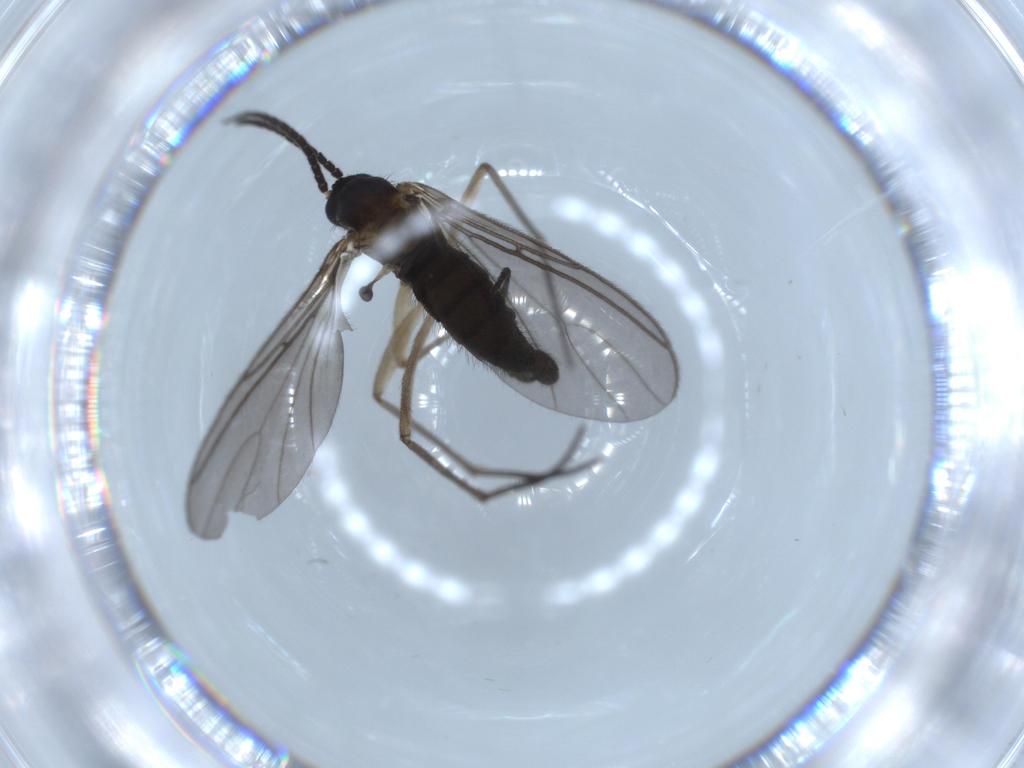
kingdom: Animalia
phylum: Arthropoda
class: Insecta
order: Diptera
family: Sciaridae
